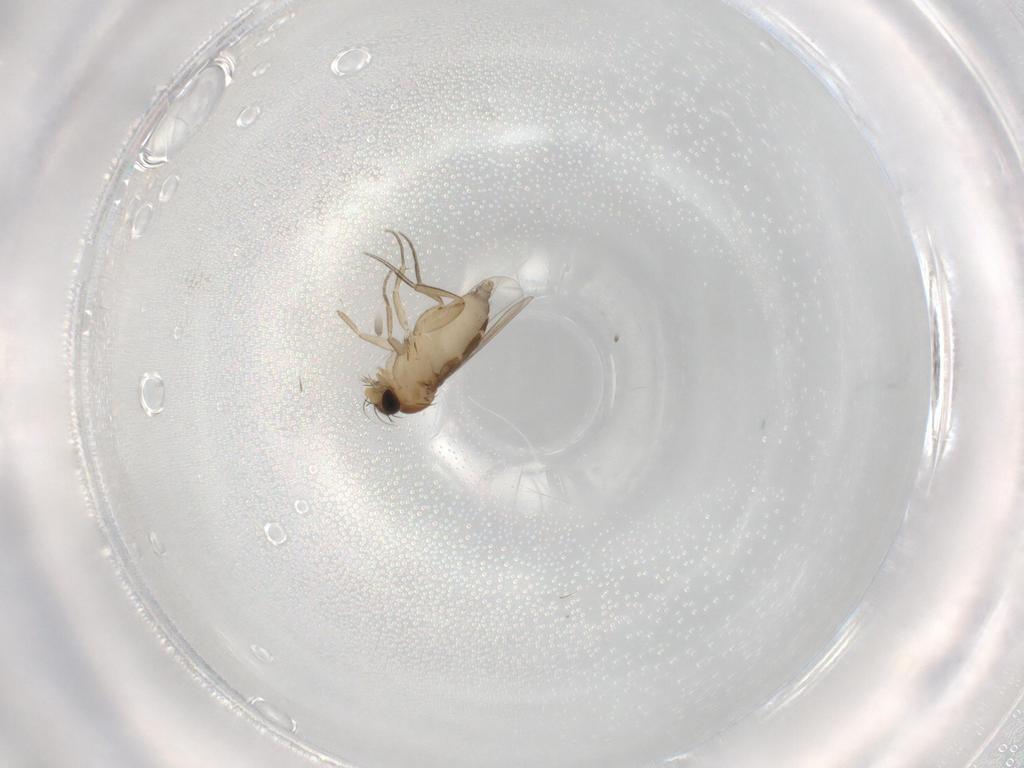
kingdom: Animalia
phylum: Arthropoda
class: Insecta
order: Diptera
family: Phoridae
